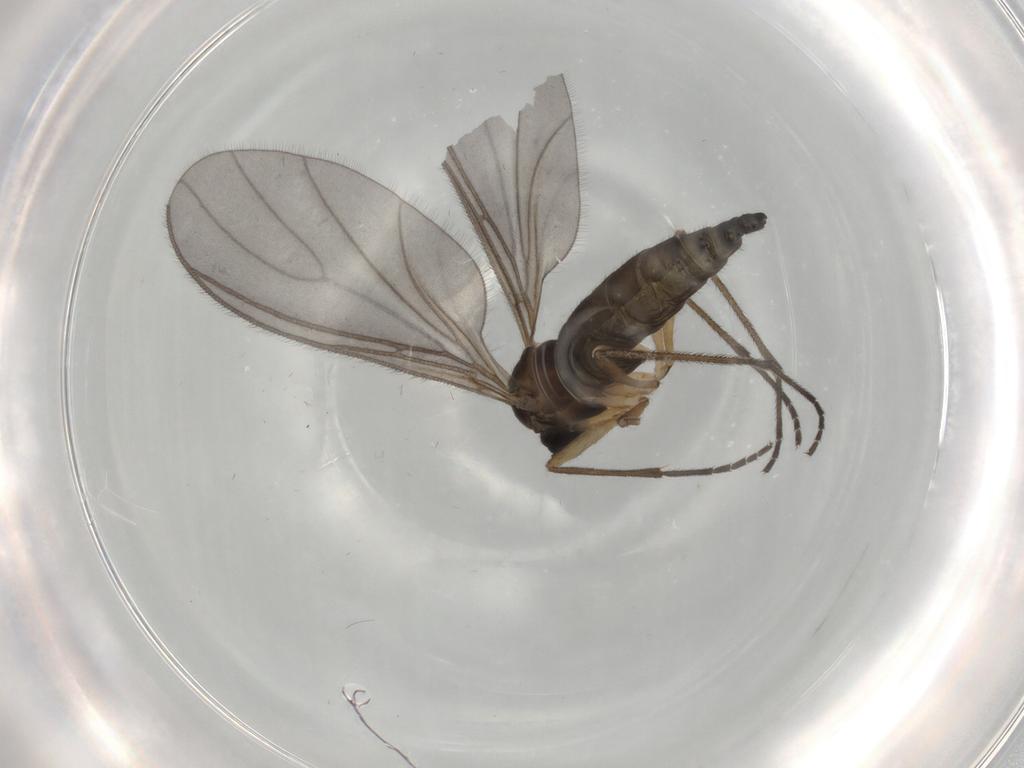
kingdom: Animalia
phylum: Arthropoda
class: Insecta
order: Diptera
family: Sciaridae
